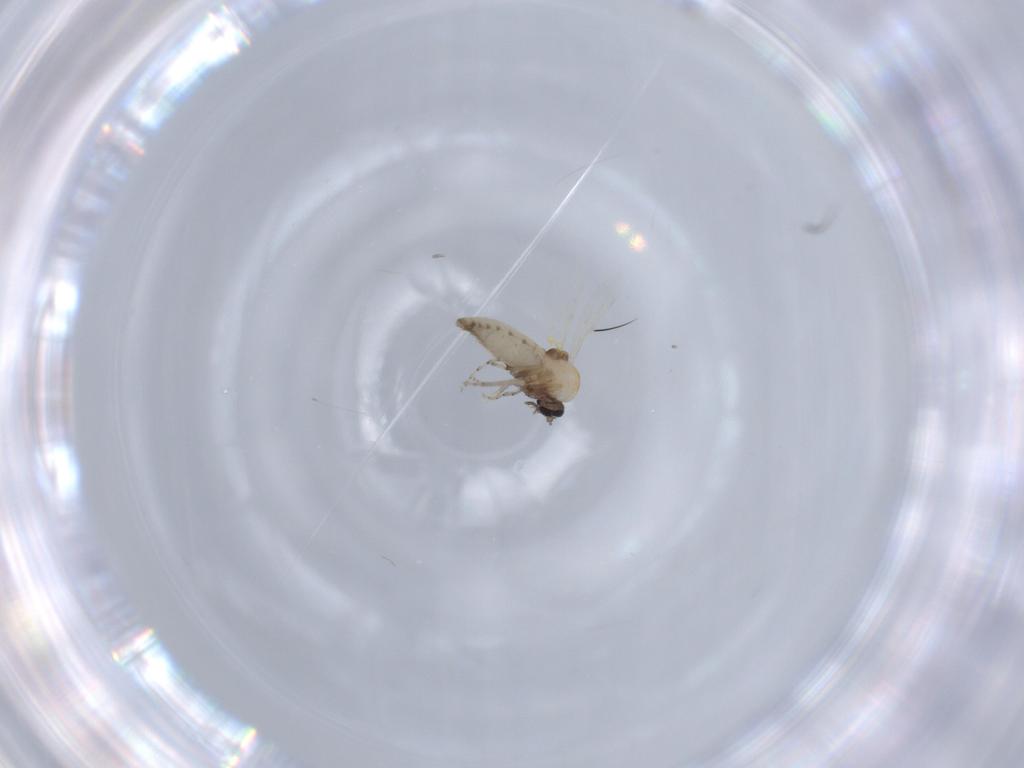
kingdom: Animalia
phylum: Arthropoda
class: Insecta
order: Diptera
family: Ceratopogonidae
